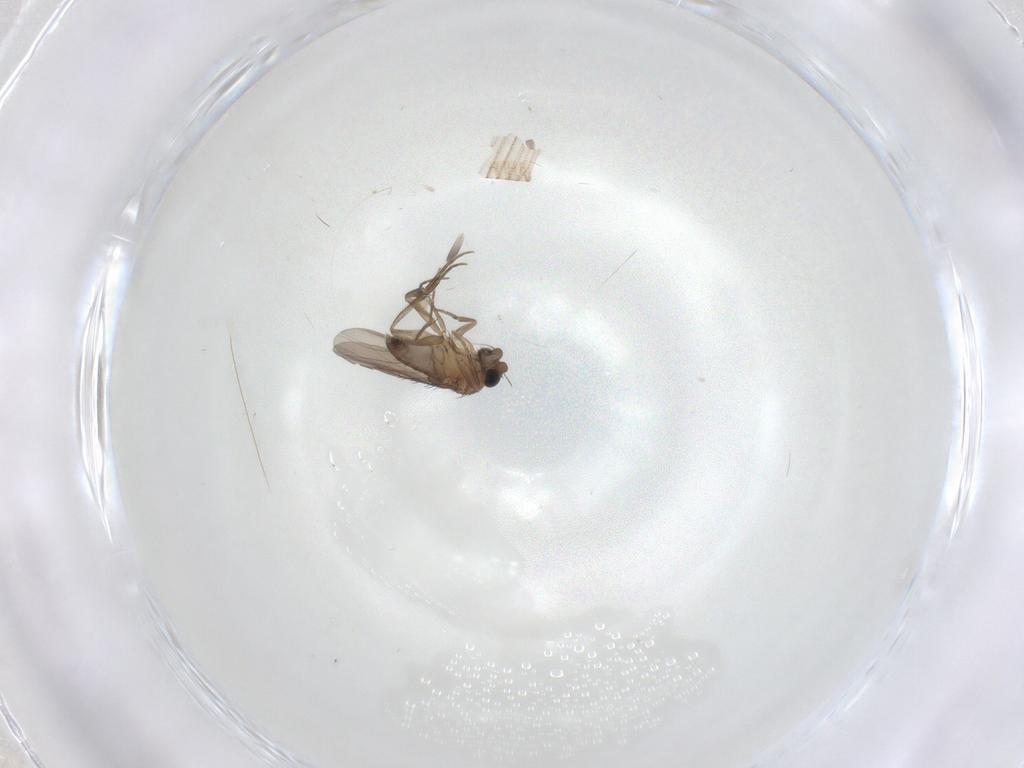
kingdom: Animalia
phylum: Arthropoda
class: Insecta
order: Diptera
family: Phoridae
